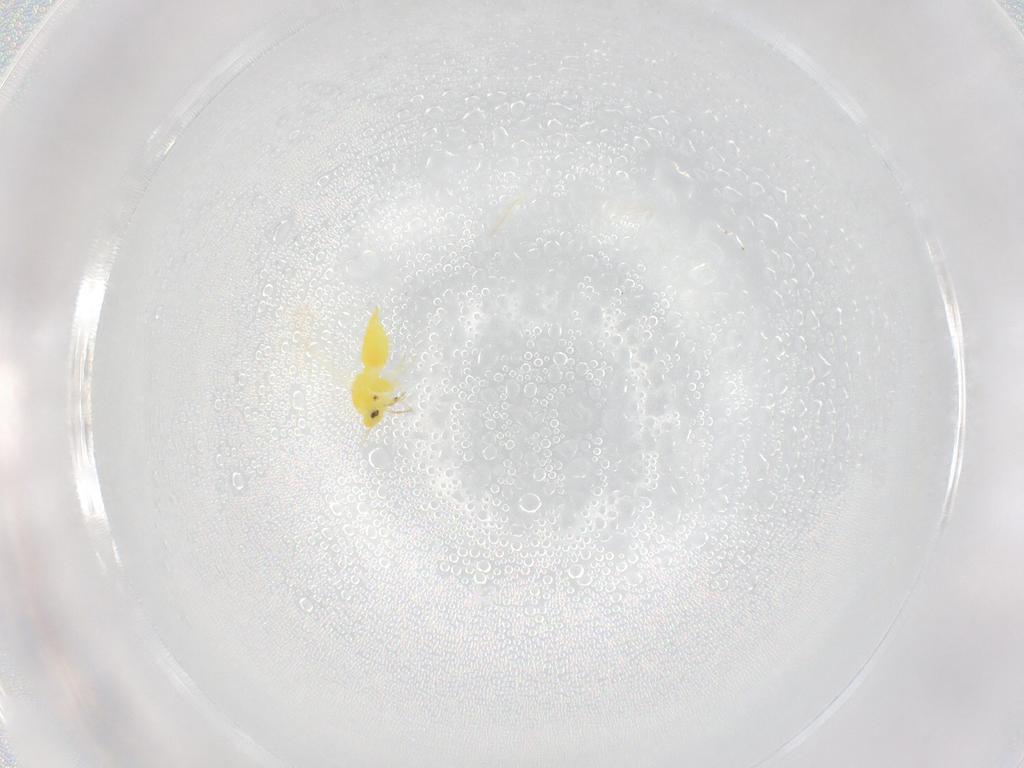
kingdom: Animalia
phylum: Arthropoda
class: Insecta
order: Hemiptera
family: Aleyrodidae
